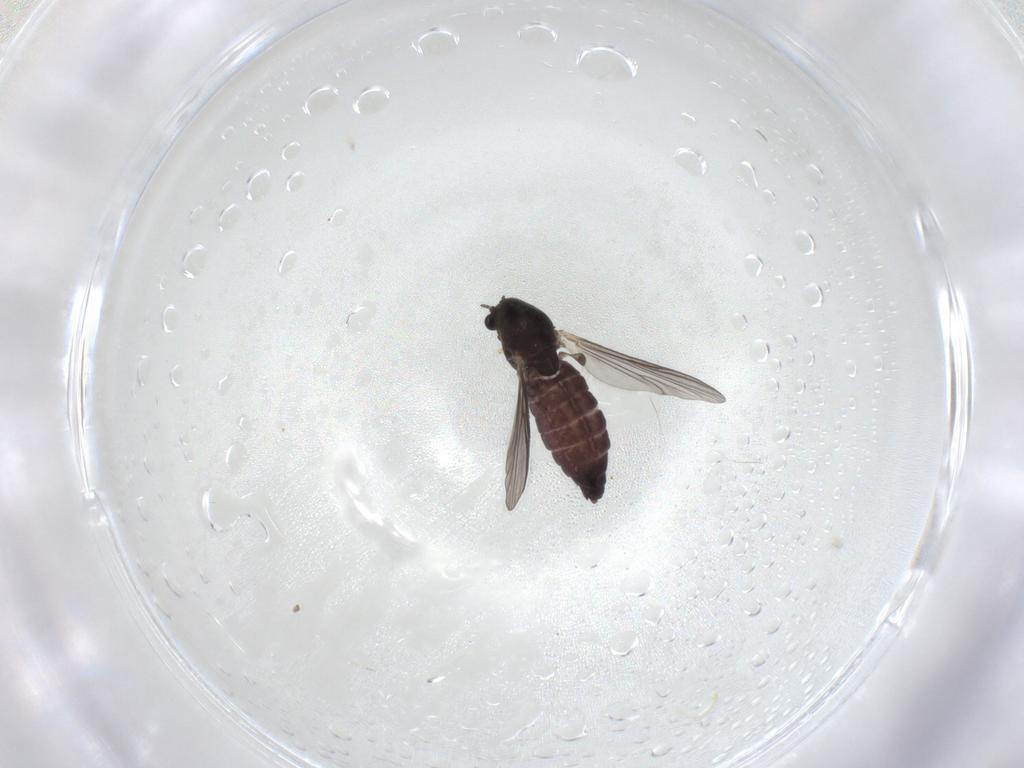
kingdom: Animalia
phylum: Arthropoda
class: Insecta
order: Diptera
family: Chironomidae
